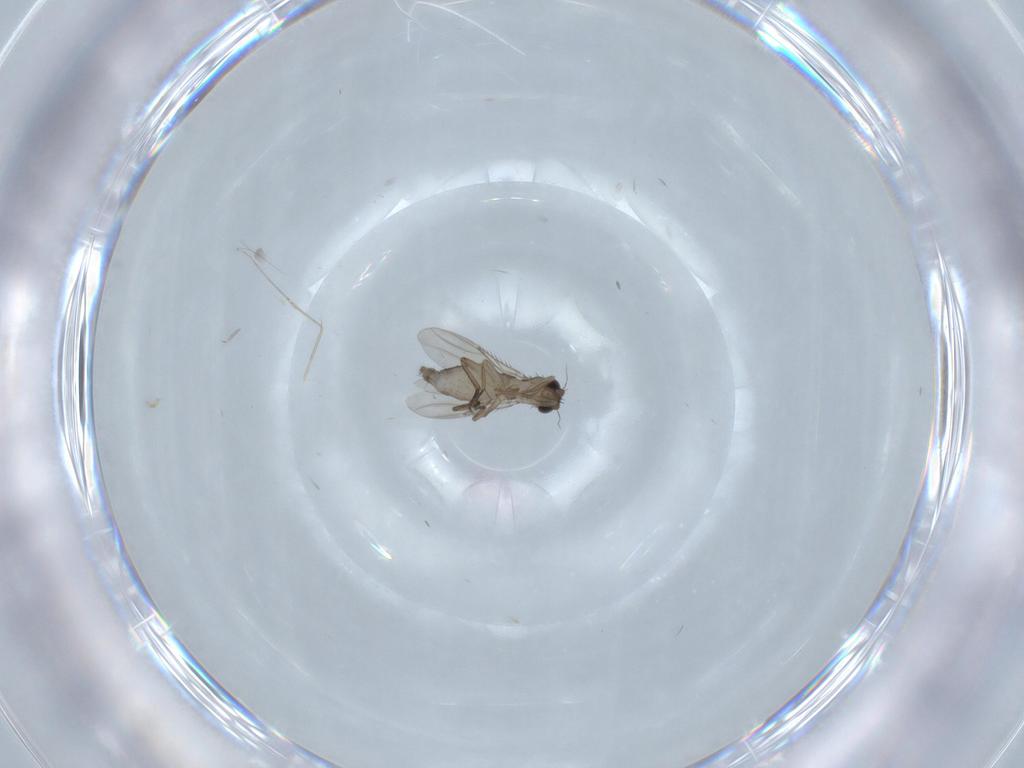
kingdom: Animalia
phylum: Arthropoda
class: Insecta
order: Diptera
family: Cecidomyiidae
